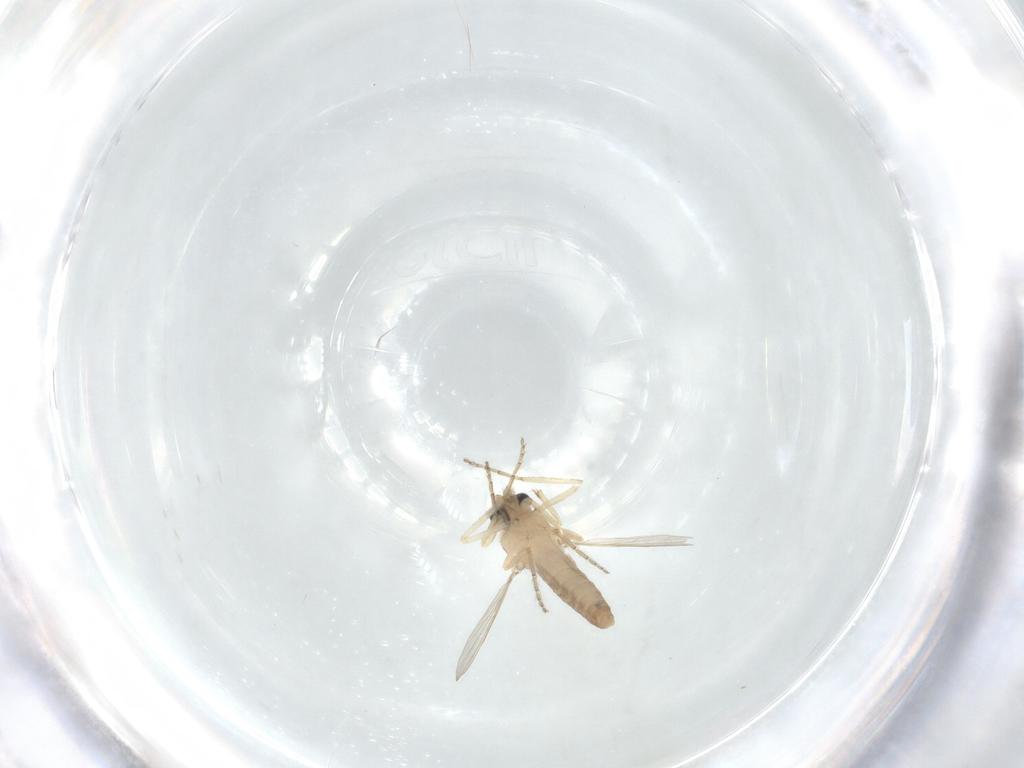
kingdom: Animalia
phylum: Arthropoda
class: Insecta
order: Diptera
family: Ceratopogonidae
